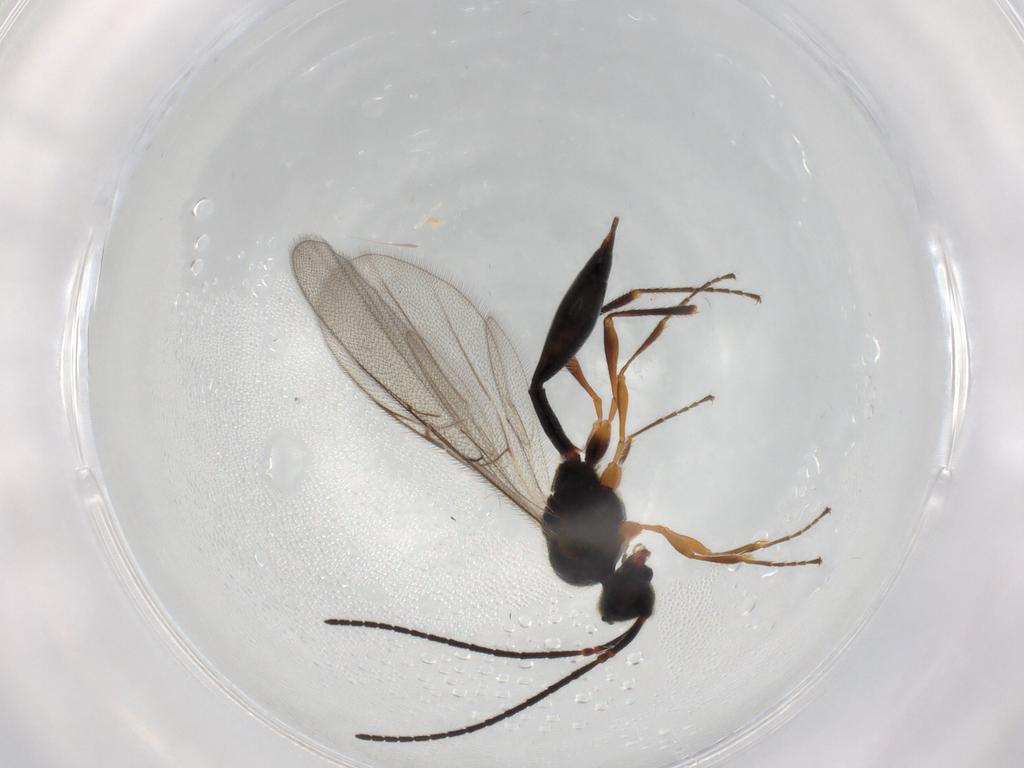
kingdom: Animalia
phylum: Arthropoda
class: Insecta
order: Hymenoptera
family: Diapriidae
